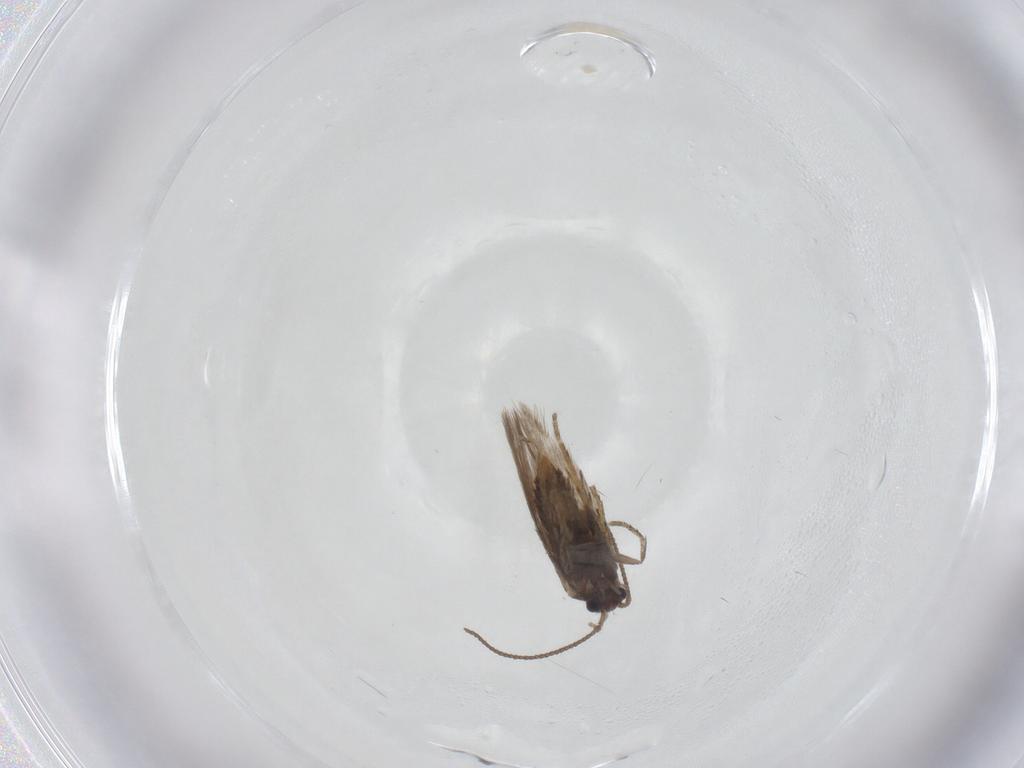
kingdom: Animalia
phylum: Arthropoda
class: Insecta
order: Lepidoptera
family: Nepticulidae
